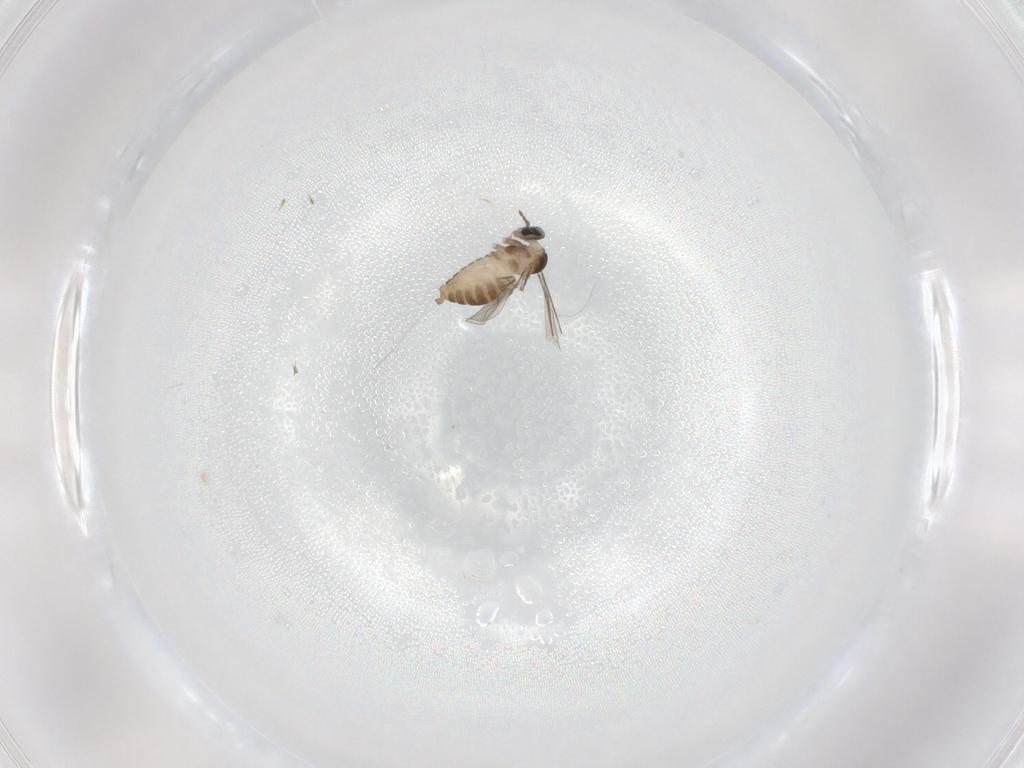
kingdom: Animalia
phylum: Arthropoda
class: Insecta
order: Diptera
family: Cecidomyiidae
